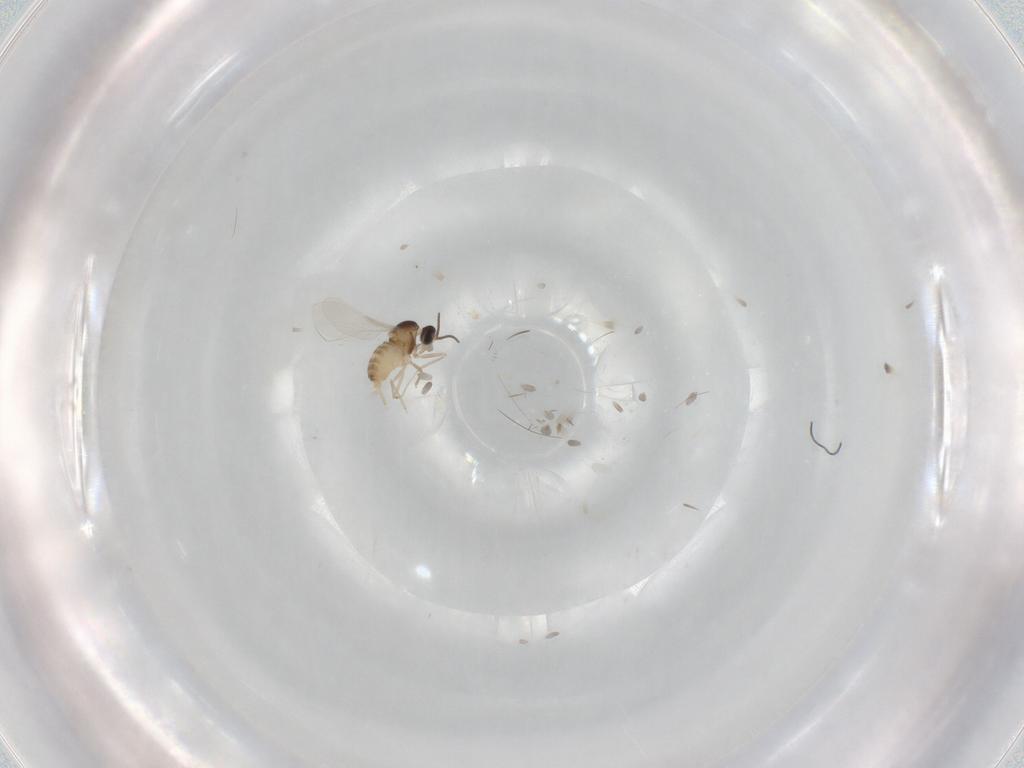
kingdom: Animalia
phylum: Arthropoda
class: Insecta
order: Diptera
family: Cecidomyiidae
